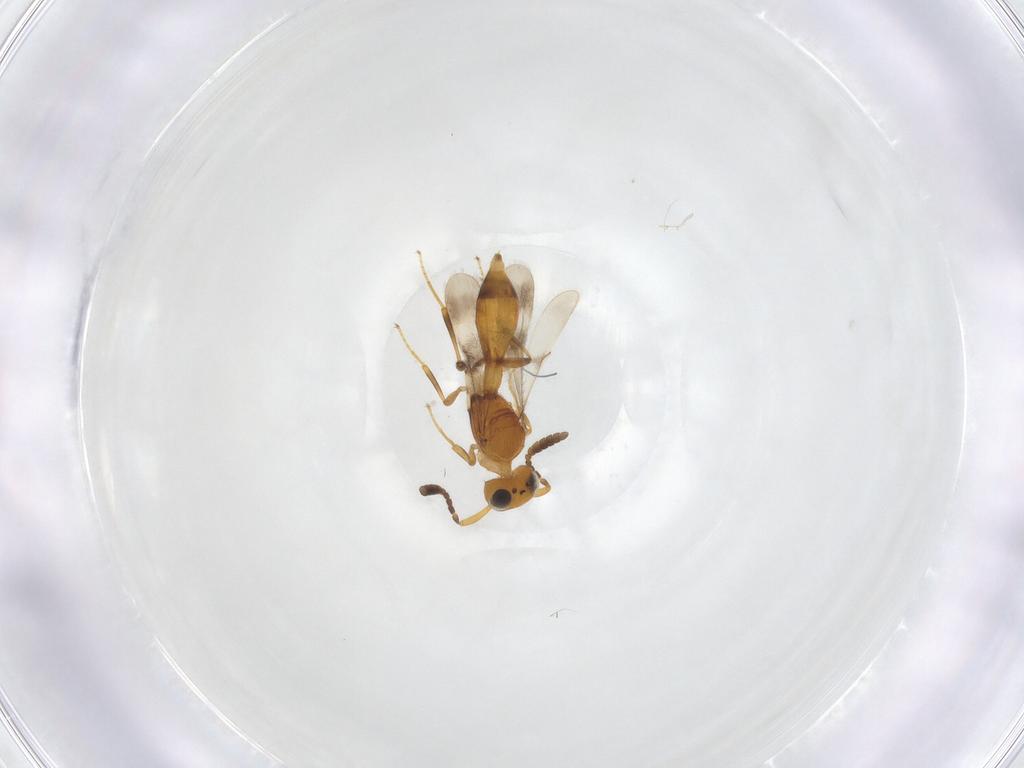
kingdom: Animalia
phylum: Arthropoda
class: Insecta
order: Hymenoptera
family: Scelionidae
